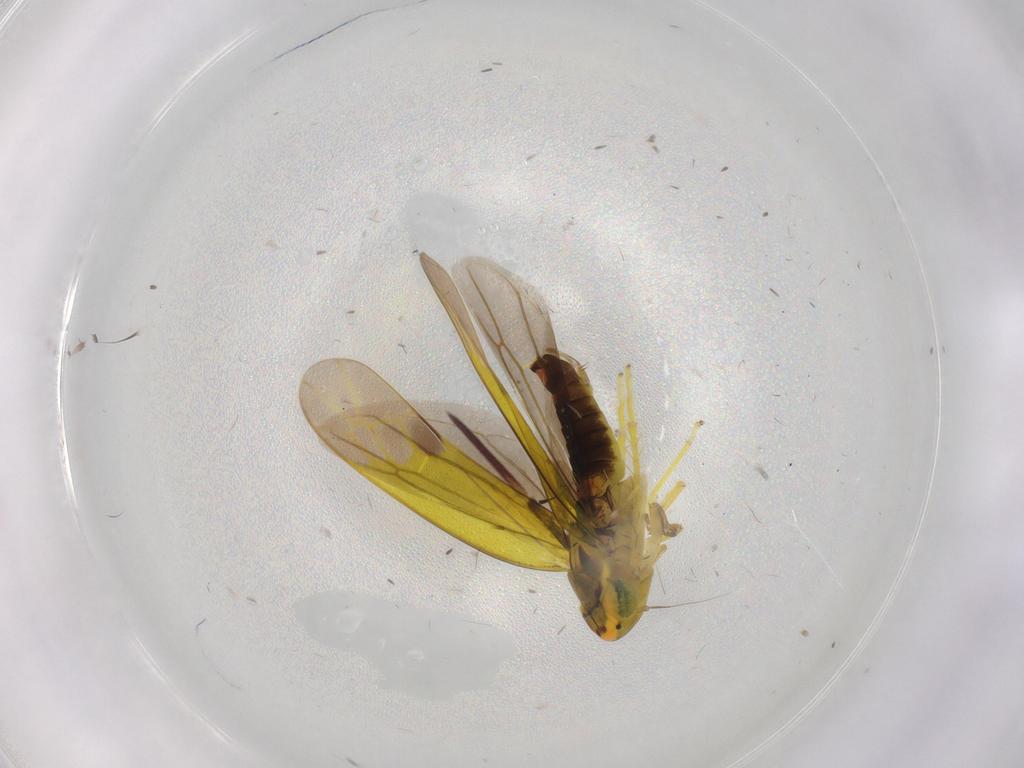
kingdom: Animalia
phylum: Arthropoda
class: Insecta
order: Hemiptera
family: Cicadellidae
